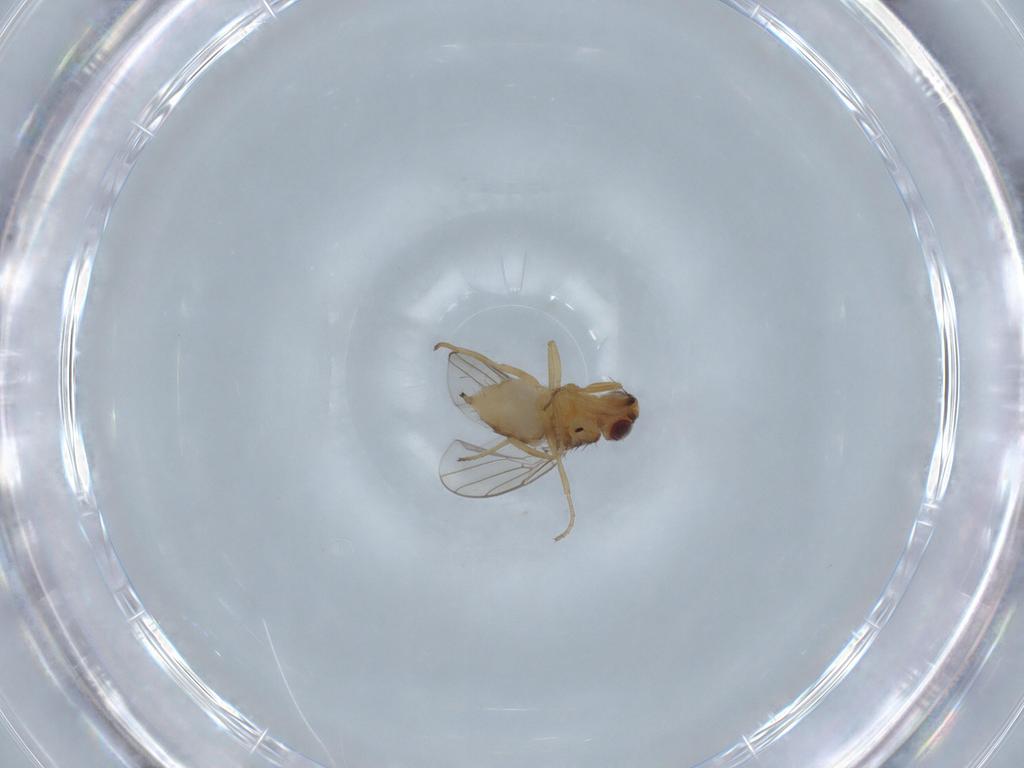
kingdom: Animalia
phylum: Arthropoda
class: Insecta
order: Diptera
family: Chloropidae
